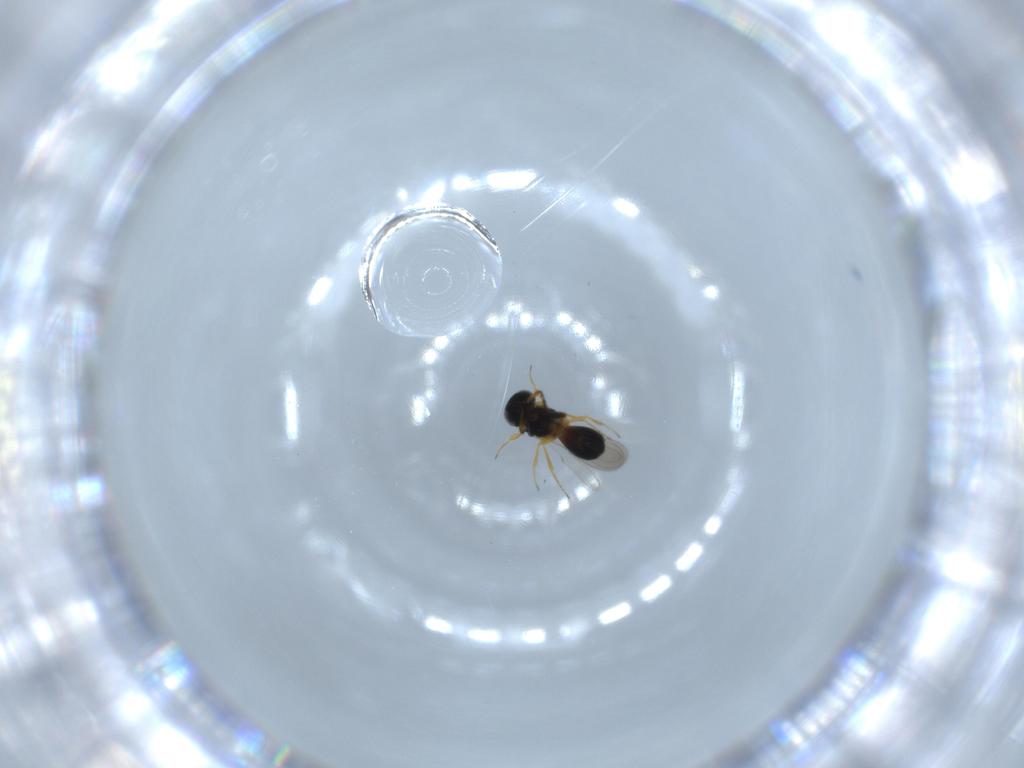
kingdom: Animalia
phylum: Arthropoda
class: Insecta
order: Hymenoptera
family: Scelionidae
